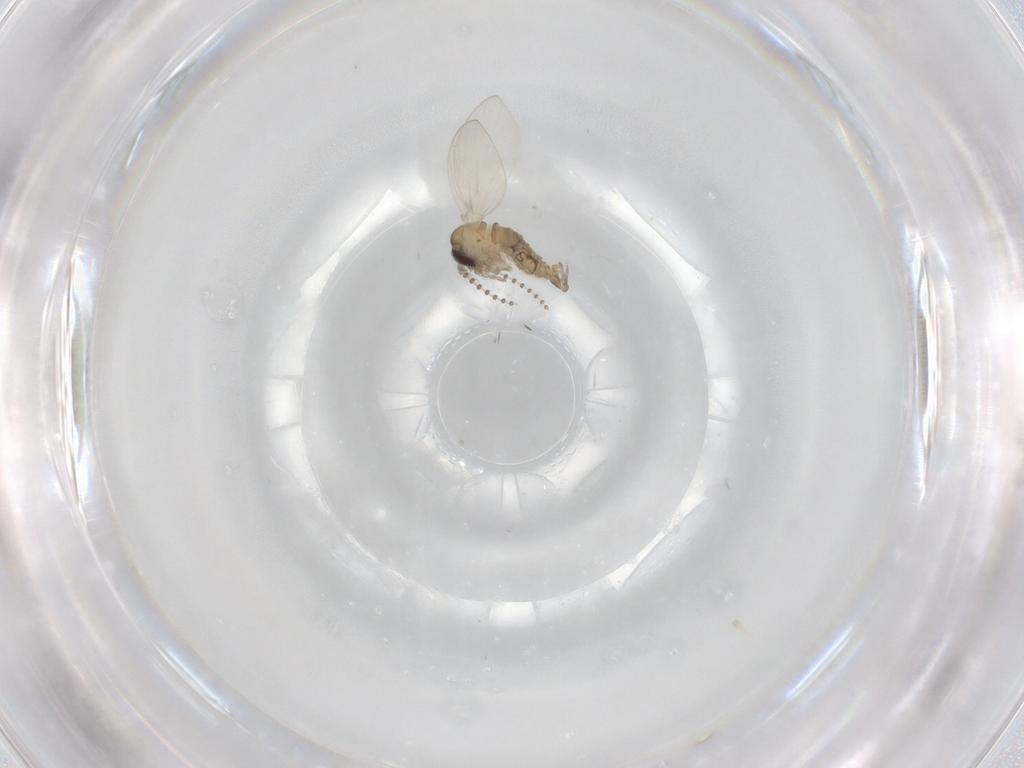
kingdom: Animalia
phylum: Arthropoda
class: Insecta
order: Diptera
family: Psychodidae
